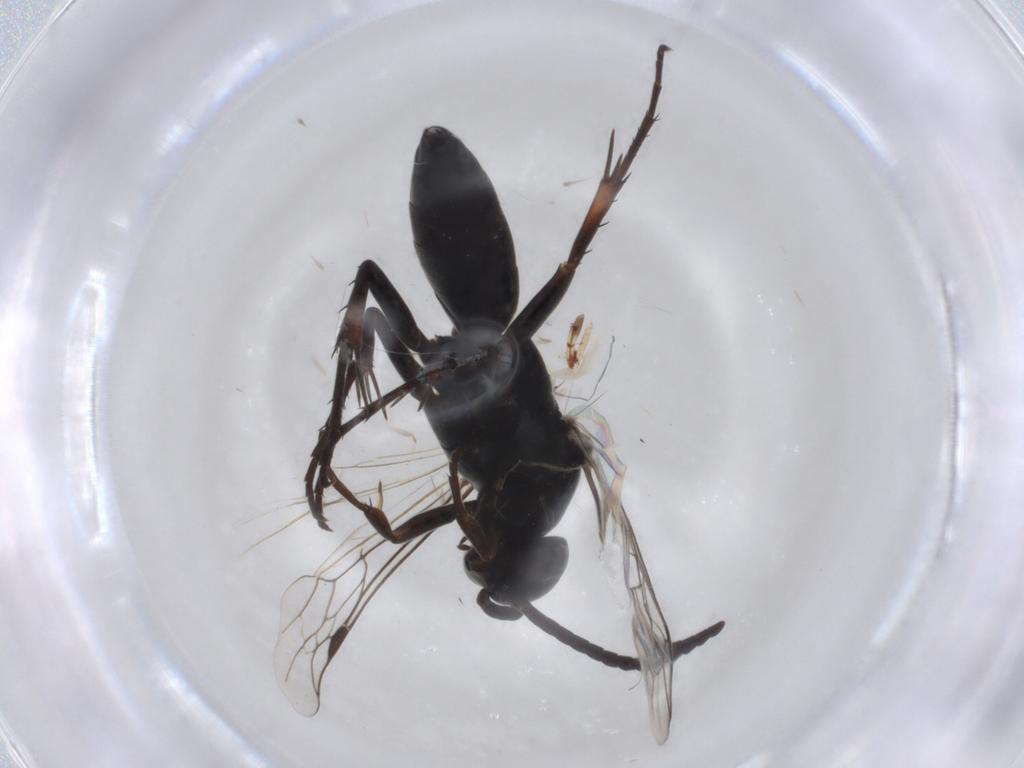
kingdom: Animalia
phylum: Arthropoda
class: Insecta
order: Hymenoptera
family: Pompilidae
